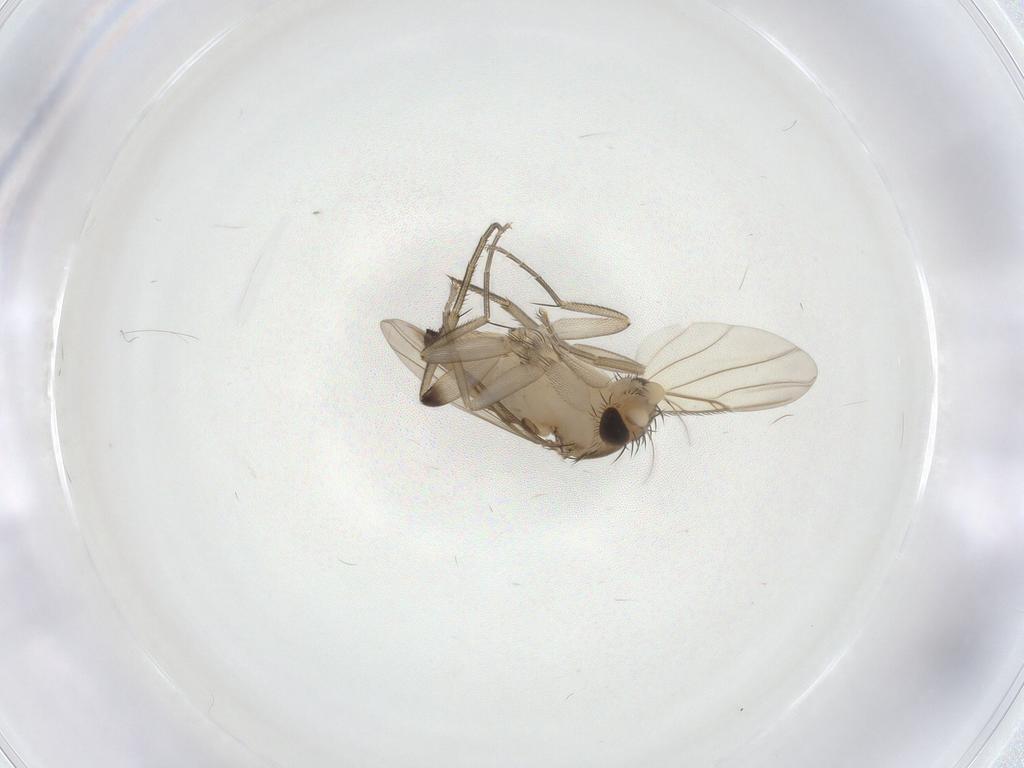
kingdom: Animalia
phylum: Arthropoda
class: Insecta
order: Diptera
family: Phoridae
